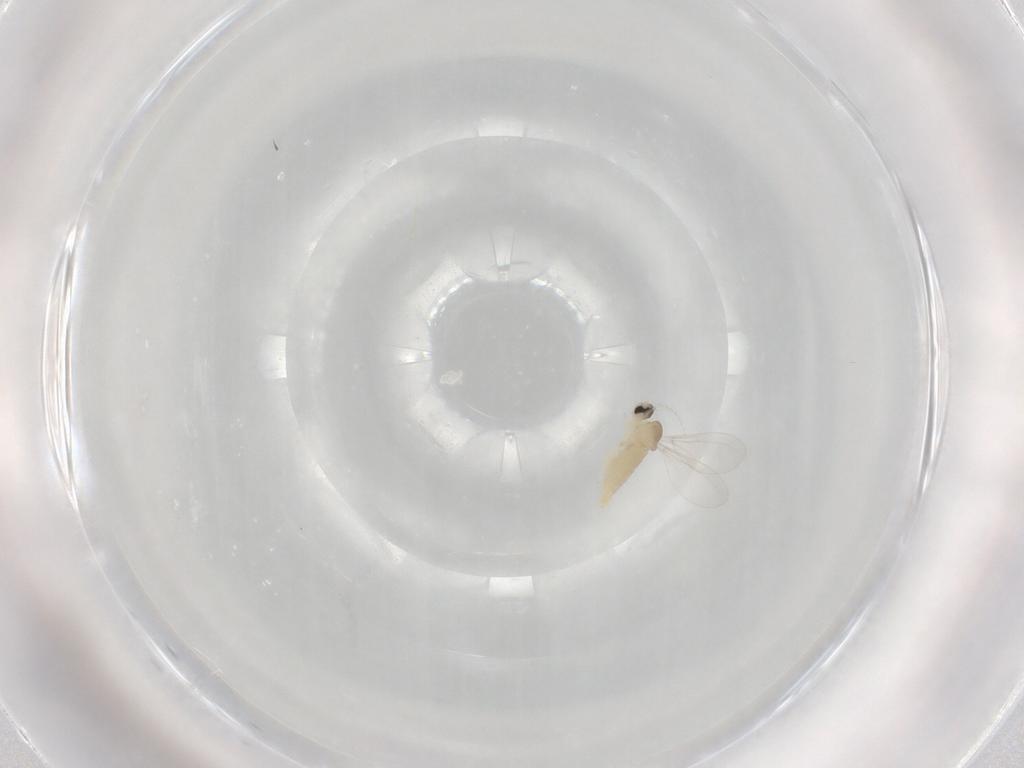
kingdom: Animalia
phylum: Arthropoda
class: Insecta
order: Diptera
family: Cecidomyiidae
